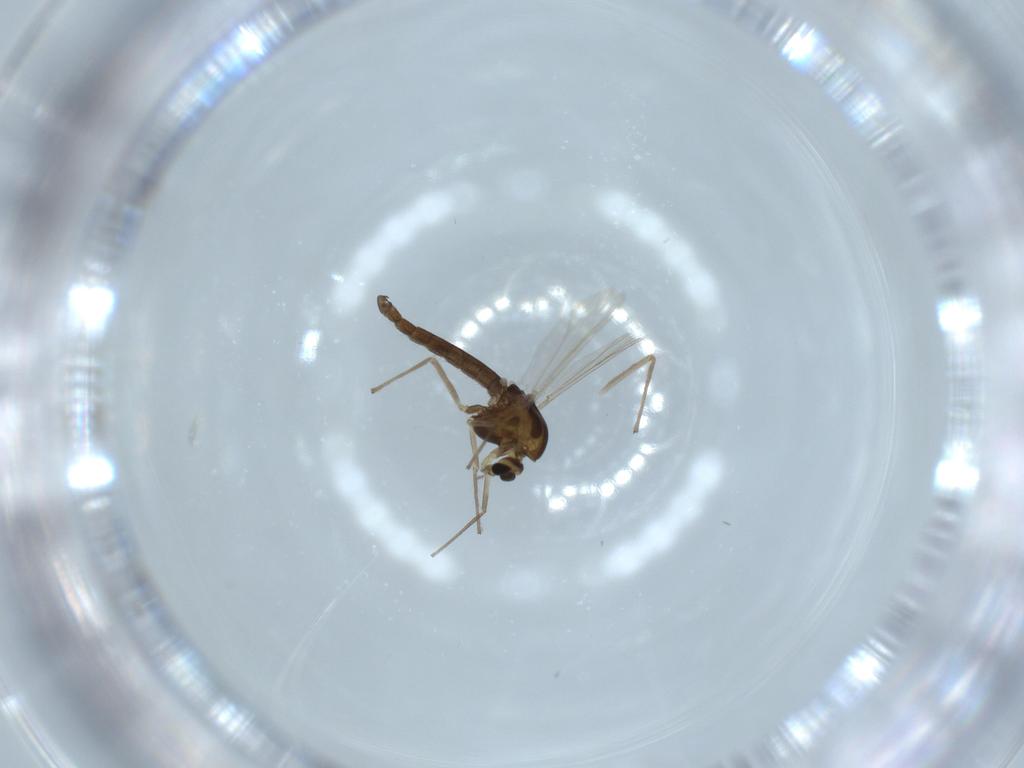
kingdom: Animalia
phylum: Arthropoda
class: Insecta
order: Diptera
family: Chironomidae
